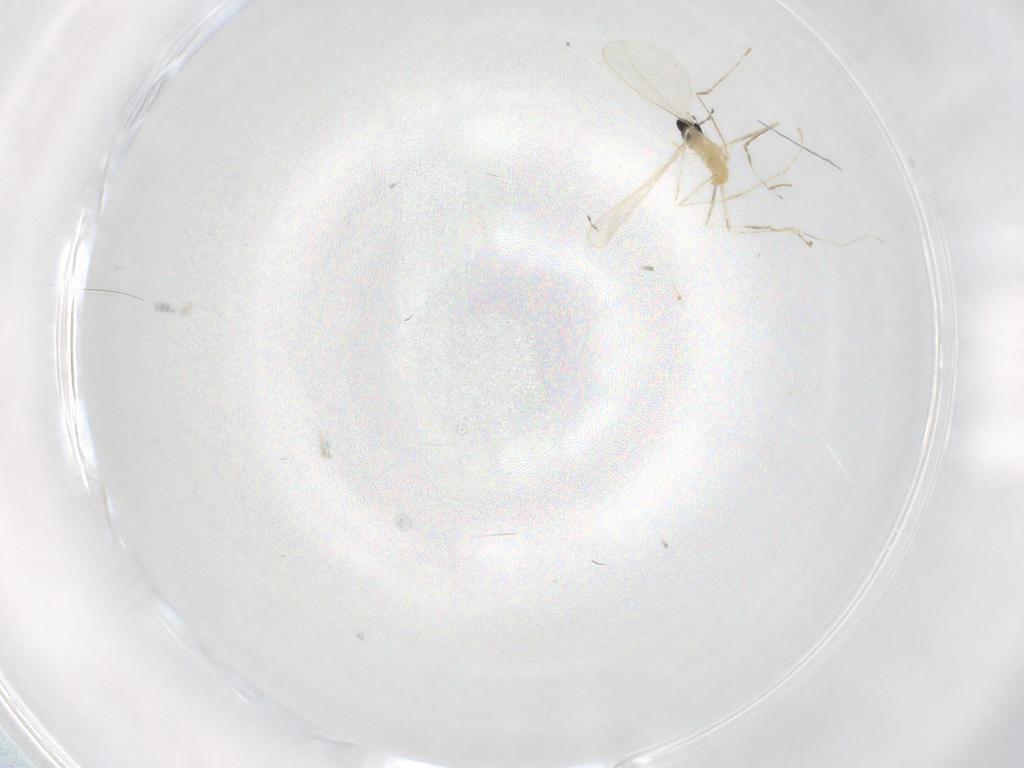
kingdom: Animalia
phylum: Arthropoda
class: Insecta
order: Diptera
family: Cecidomyiidae
